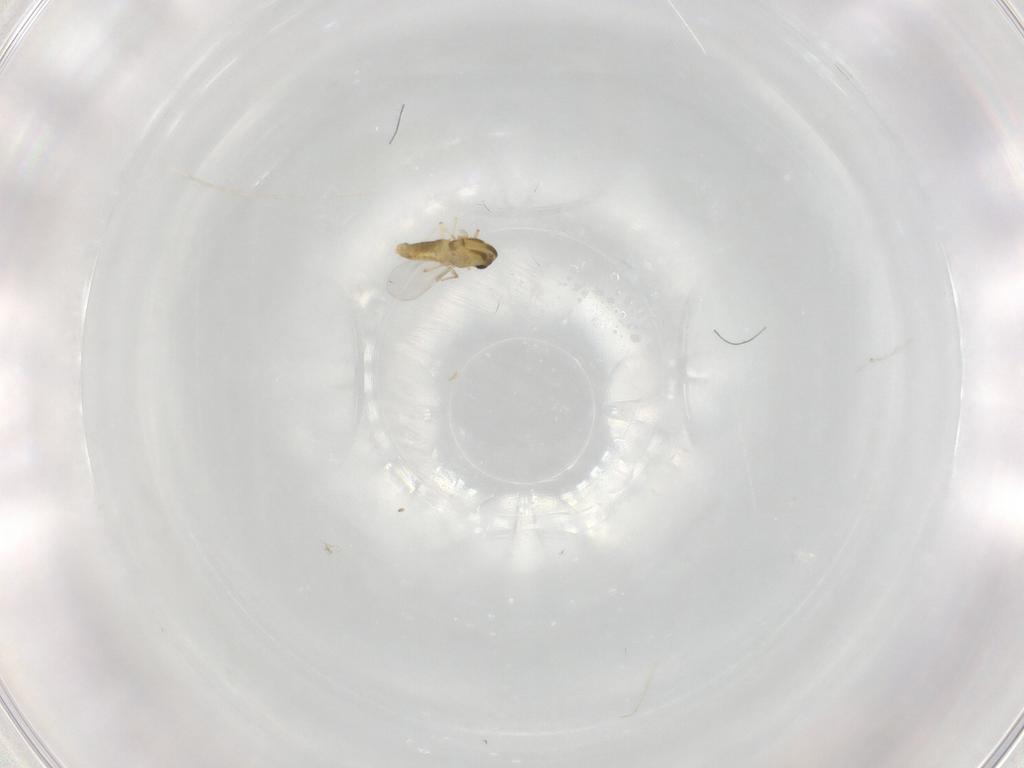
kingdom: Animalia
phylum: Arthropoda
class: Insecta
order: Diptera
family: Chironomidae
